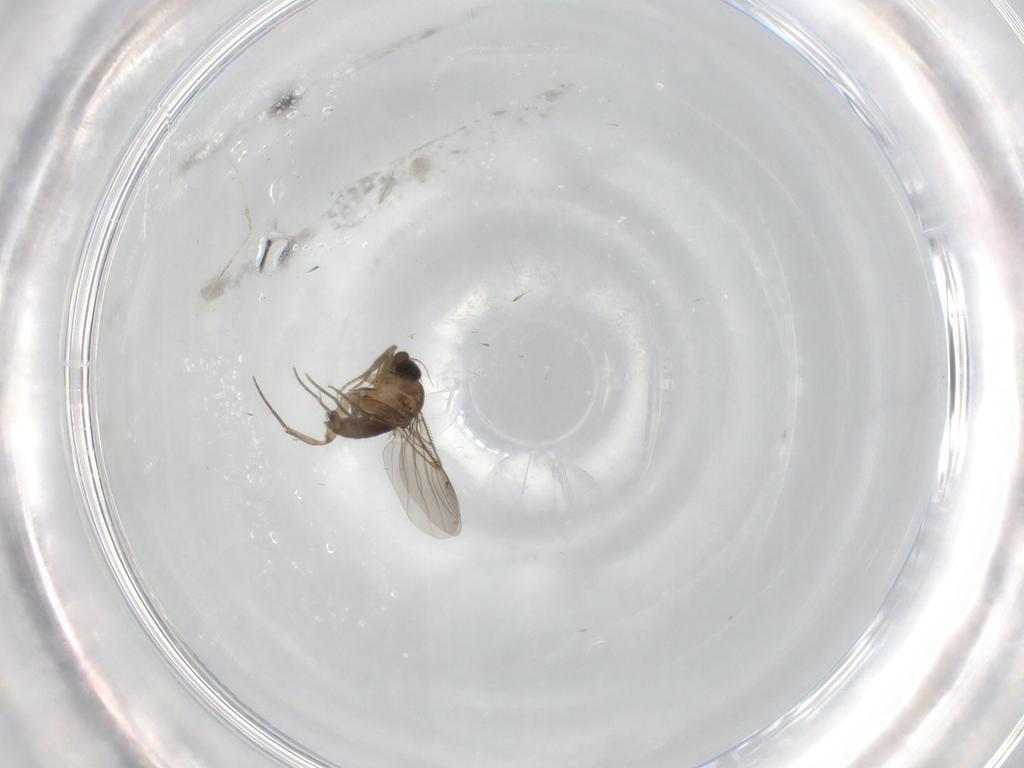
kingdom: Animalia
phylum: Arthropoda
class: Insecta
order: Diptera
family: Phoridae
